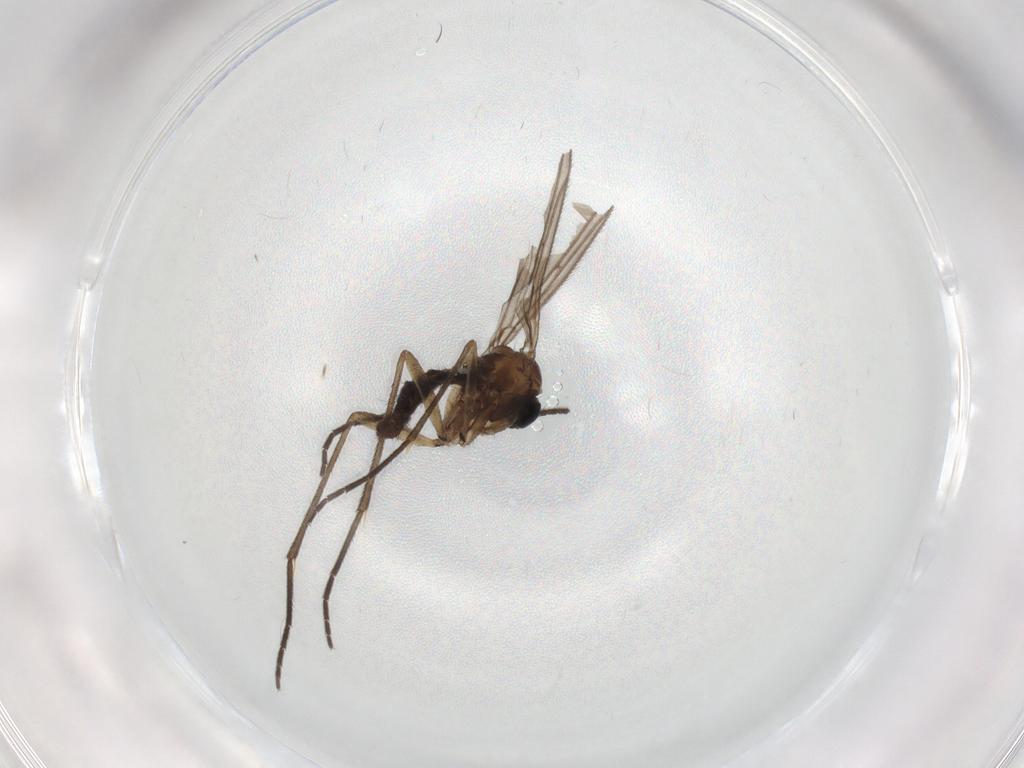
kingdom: Animalia
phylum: Arthropoda
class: Insecta
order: Diptera
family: Sciaridae
